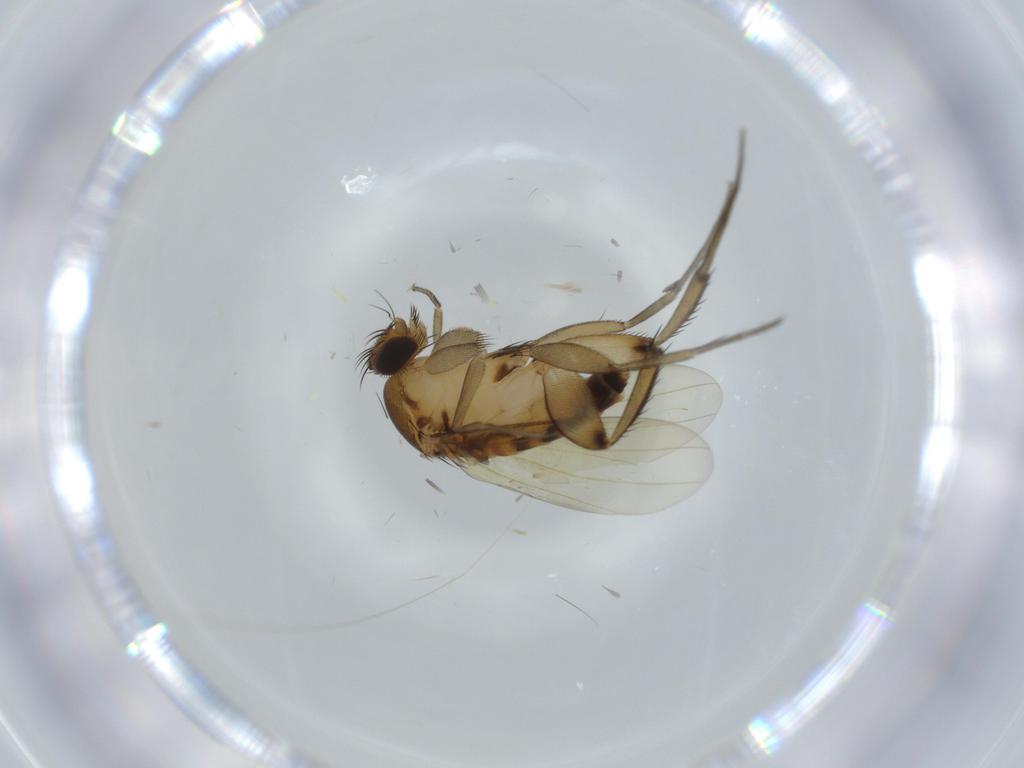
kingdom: Animalia
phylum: Arthropoda
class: Insecta
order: Diptera
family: Phoridae
